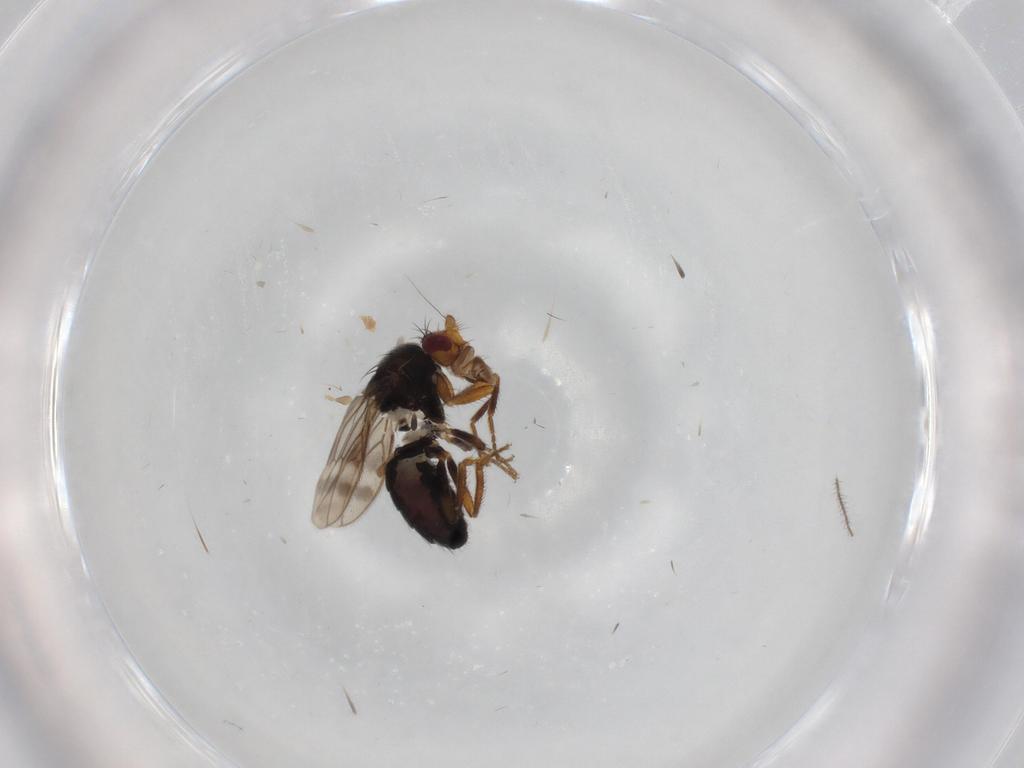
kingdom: Animalia
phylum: Arthropoda
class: Insecta
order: Diptera
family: Sphaeroceridae
